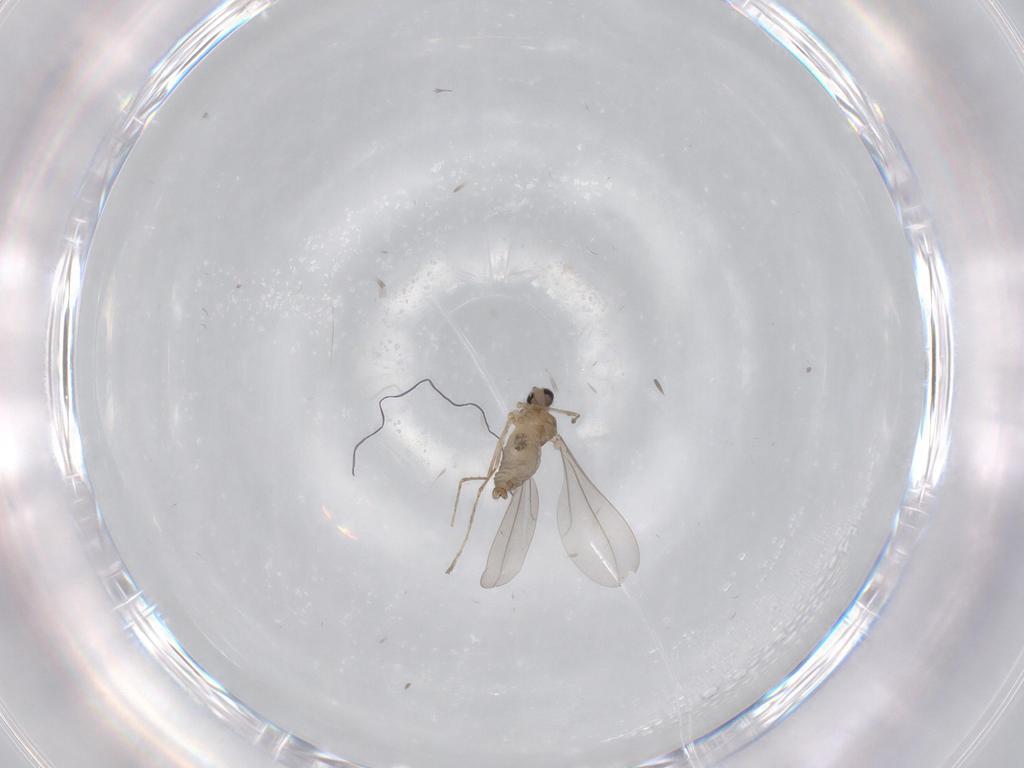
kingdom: Animalia
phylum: Arthropoda
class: Insecta
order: Diptera
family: Cecidomyiidae
